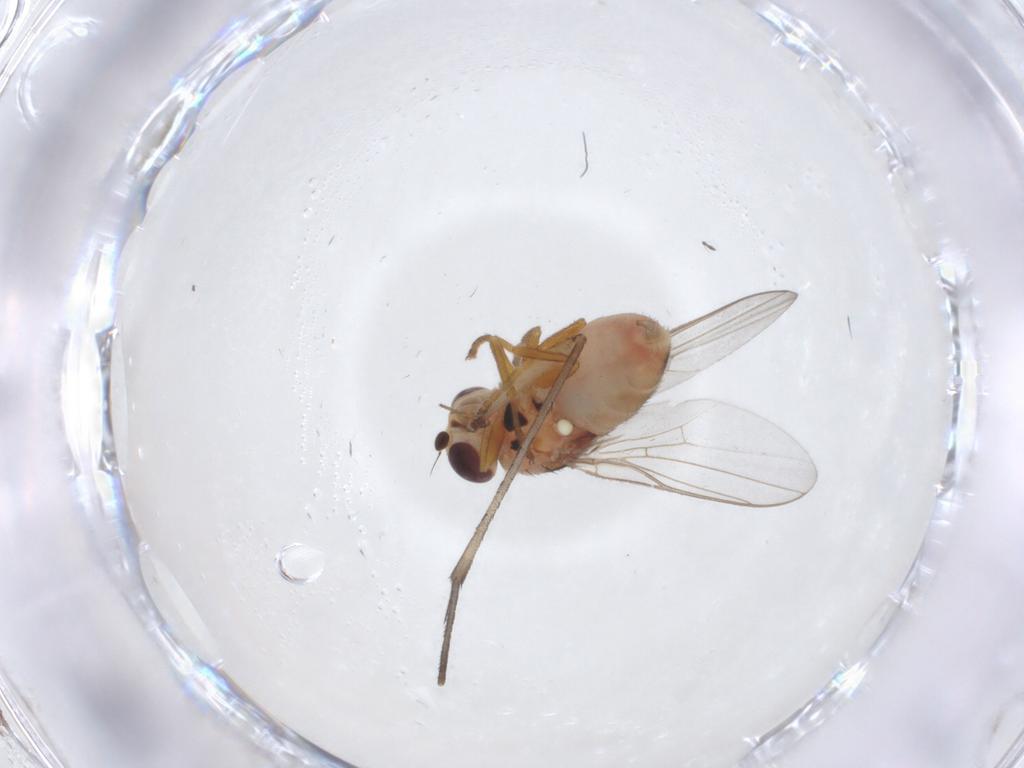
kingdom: Animalia
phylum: Arthropoda
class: Insecta
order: Diptera
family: Chloropidae
